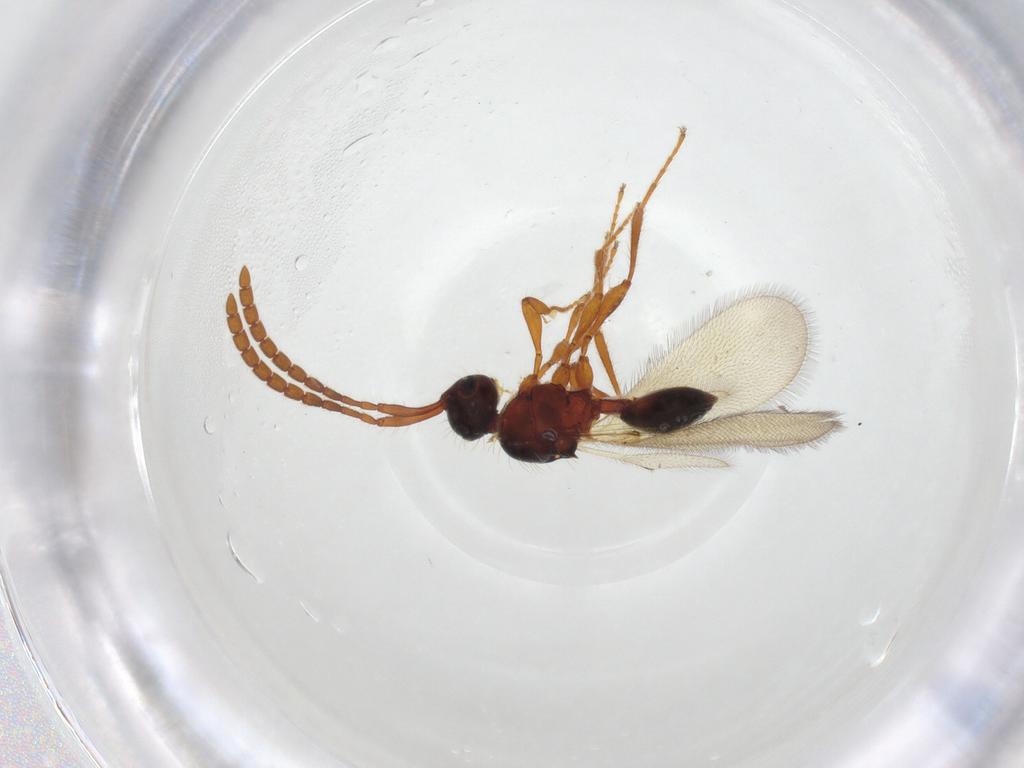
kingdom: Animalia
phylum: Arthropoda
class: Insecta
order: Hymenoptera
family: Diapriidae
